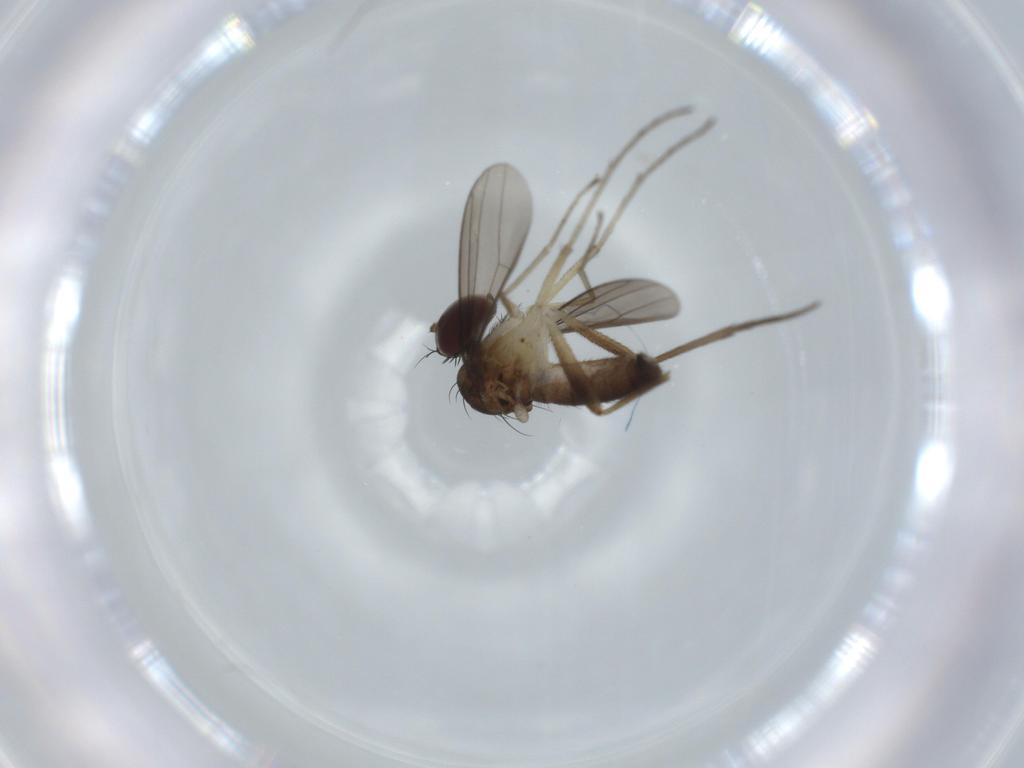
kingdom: Animalia
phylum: Arthropoda
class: Insecta
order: Diptera
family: Dolichopodidae
